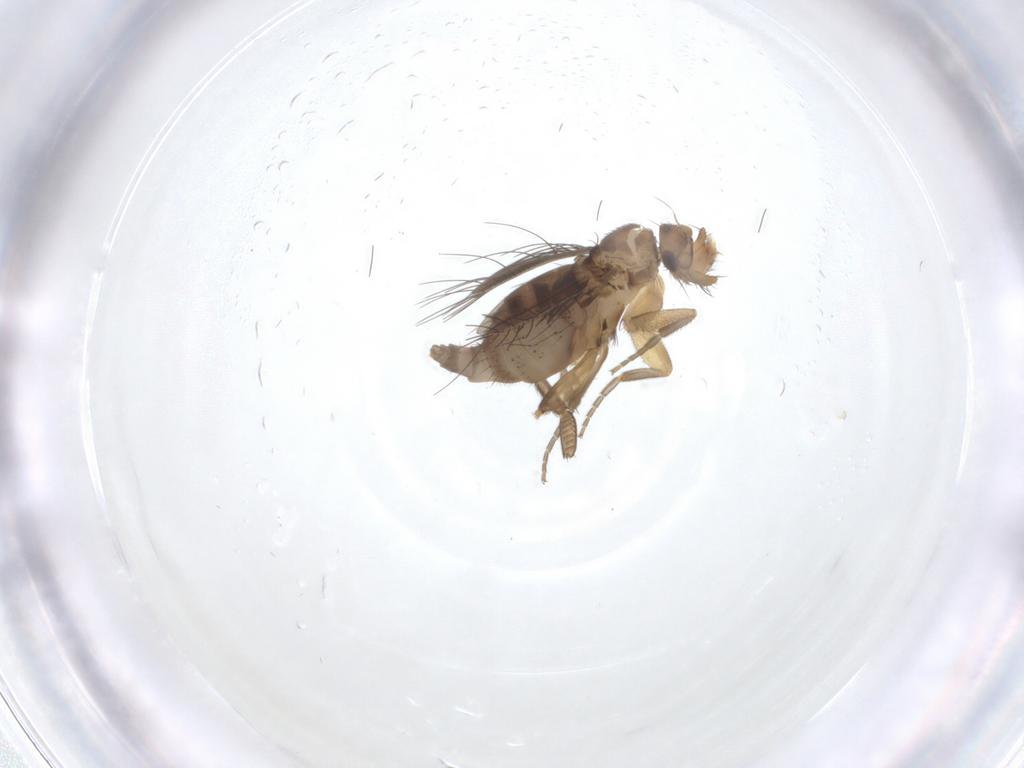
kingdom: Animalia
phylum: Arthropoda
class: Insecta
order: Diptera
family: Phoridae
